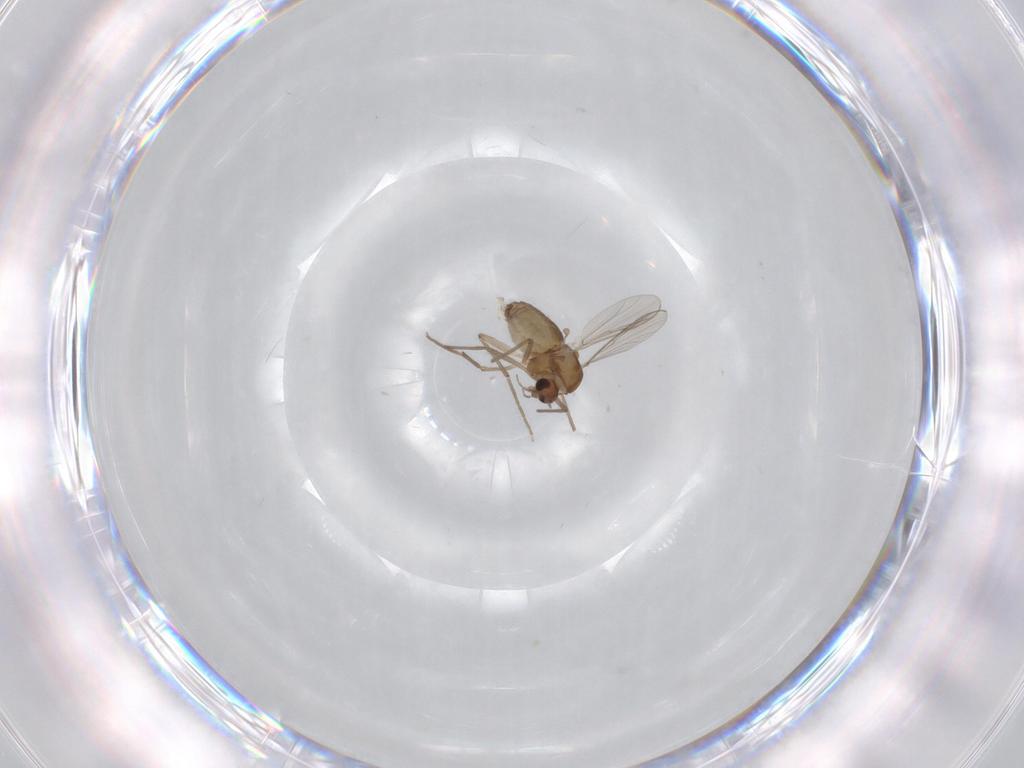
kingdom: Animalia
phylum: Arthropoda
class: Insecta
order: Diptera
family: Chironomidae
